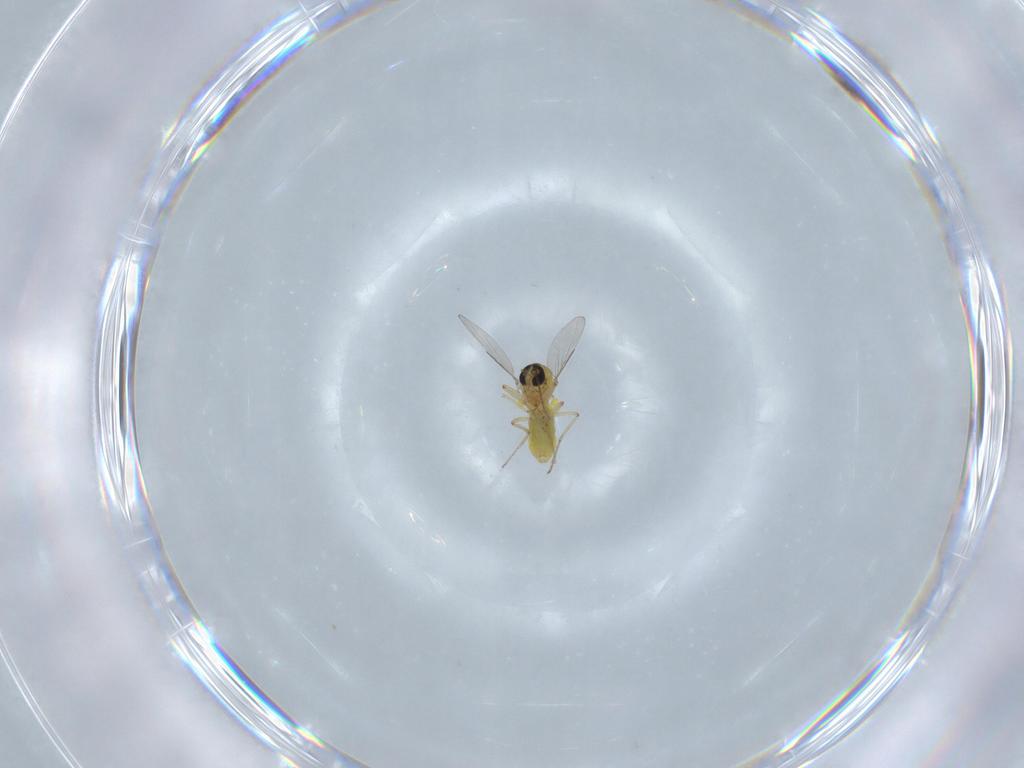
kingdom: Animalia
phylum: Arthropoda
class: Insecta
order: Diptera
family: Ceratopogonidae
